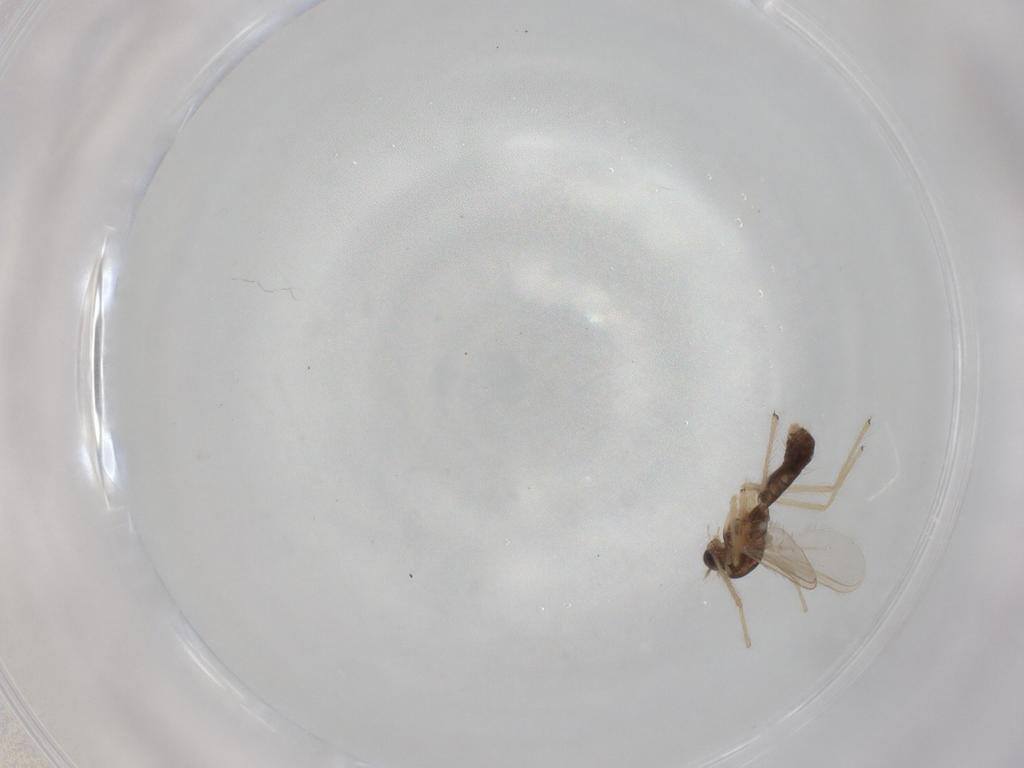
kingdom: Animalia
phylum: Arthropoda
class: Insecta
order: Diptera
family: Chironomidae
